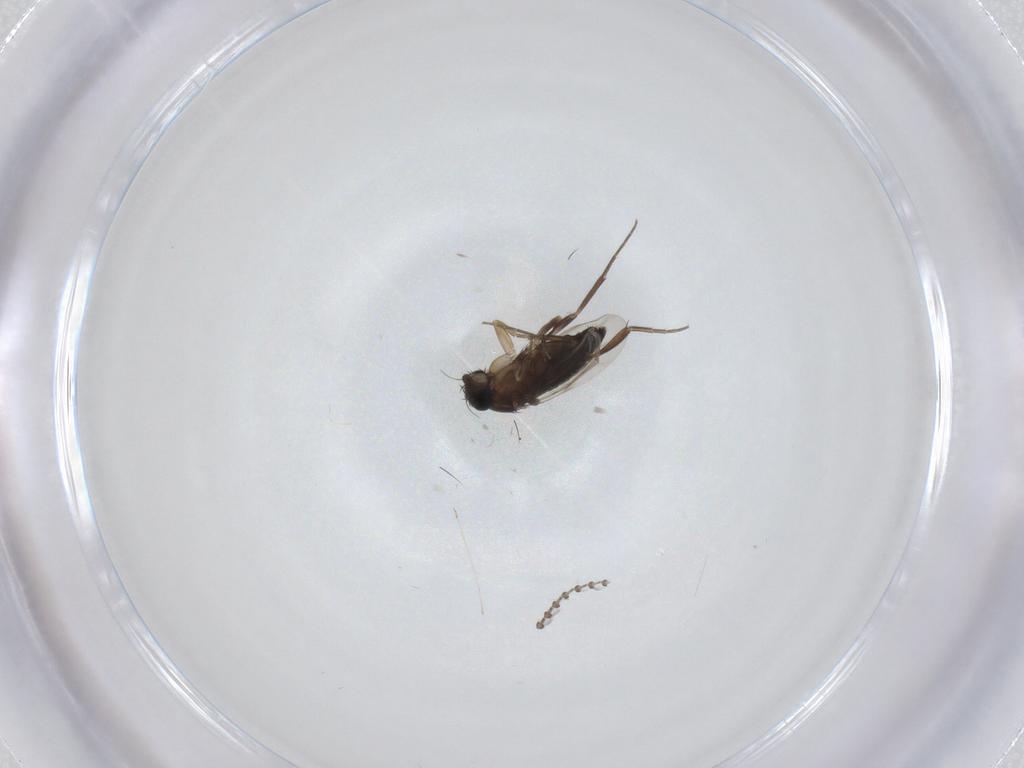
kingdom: Animalia
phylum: Arthropoda
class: Insecta
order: Diptera
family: Phoridae
